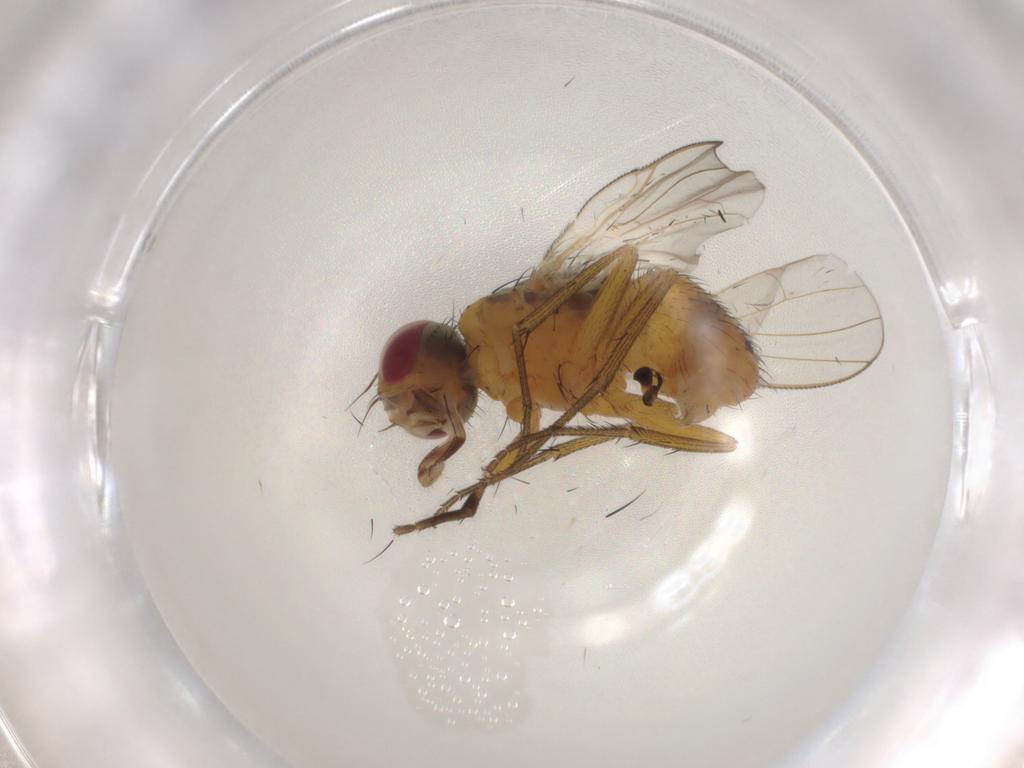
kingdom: Animalia
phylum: Arthropoda
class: Insecta
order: Diptera
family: Muscidae
